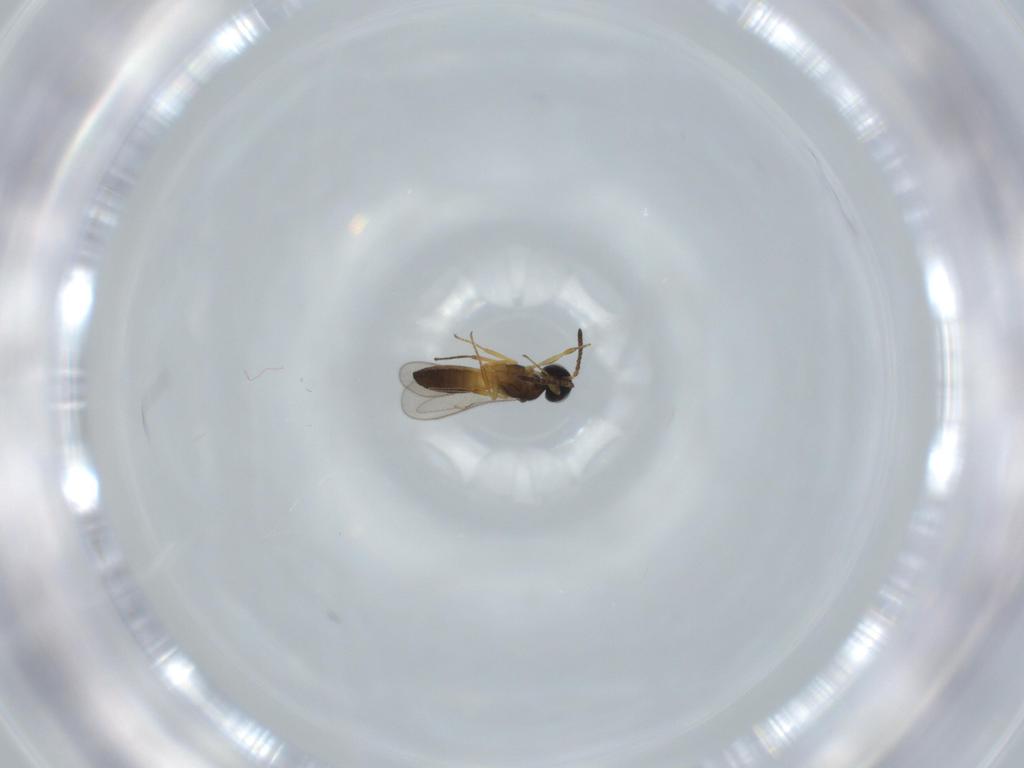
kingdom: Animalia
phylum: Arthropoda
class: Insecta
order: Hymenoptera
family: Scelionidae
